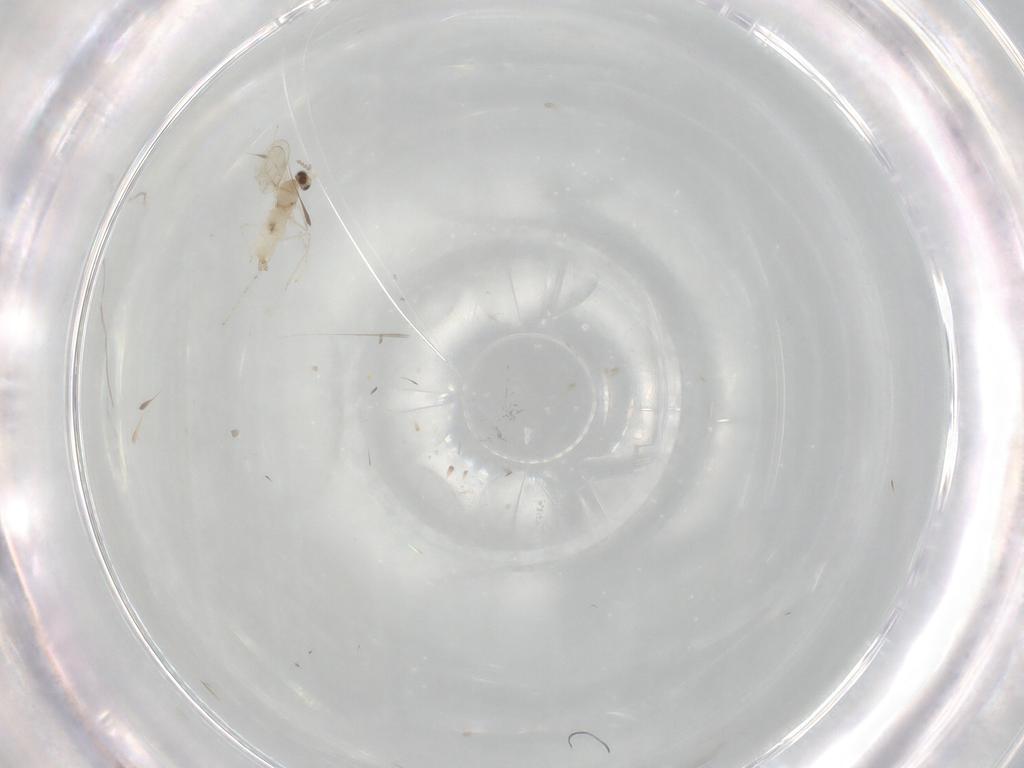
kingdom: Animalia
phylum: Arthropoda
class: Insecta
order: Diptera
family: Cecidomyiidae
